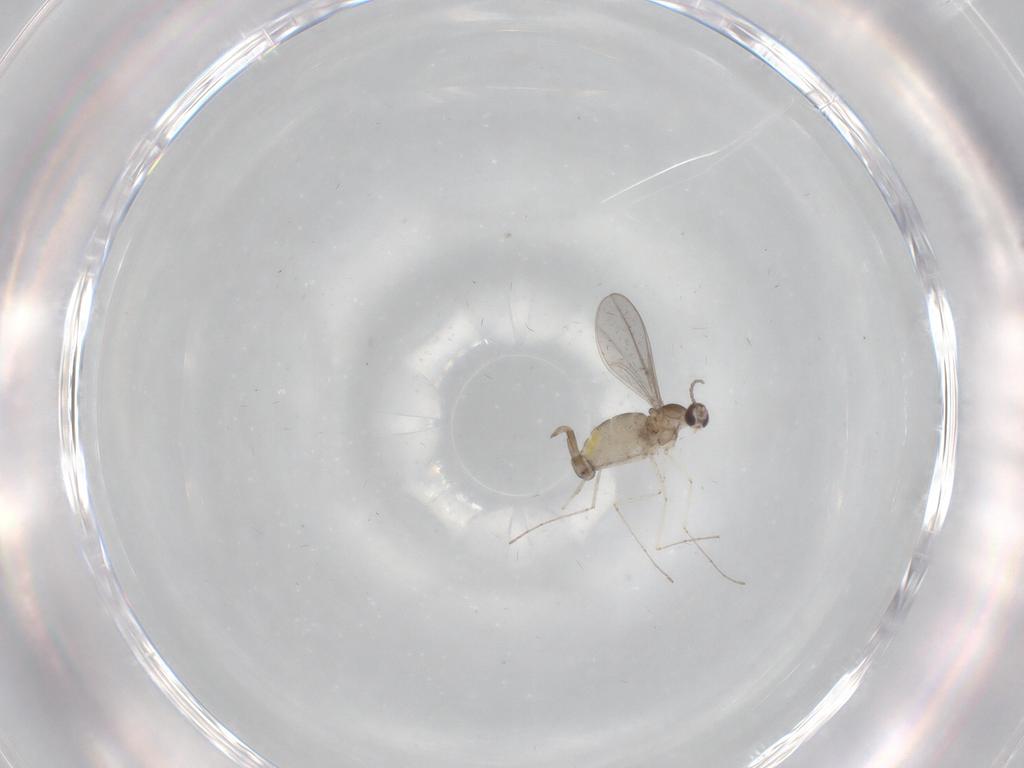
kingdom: Animalia
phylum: Arthropoda
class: Insecta
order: Diptera
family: Cecidomyiidae
